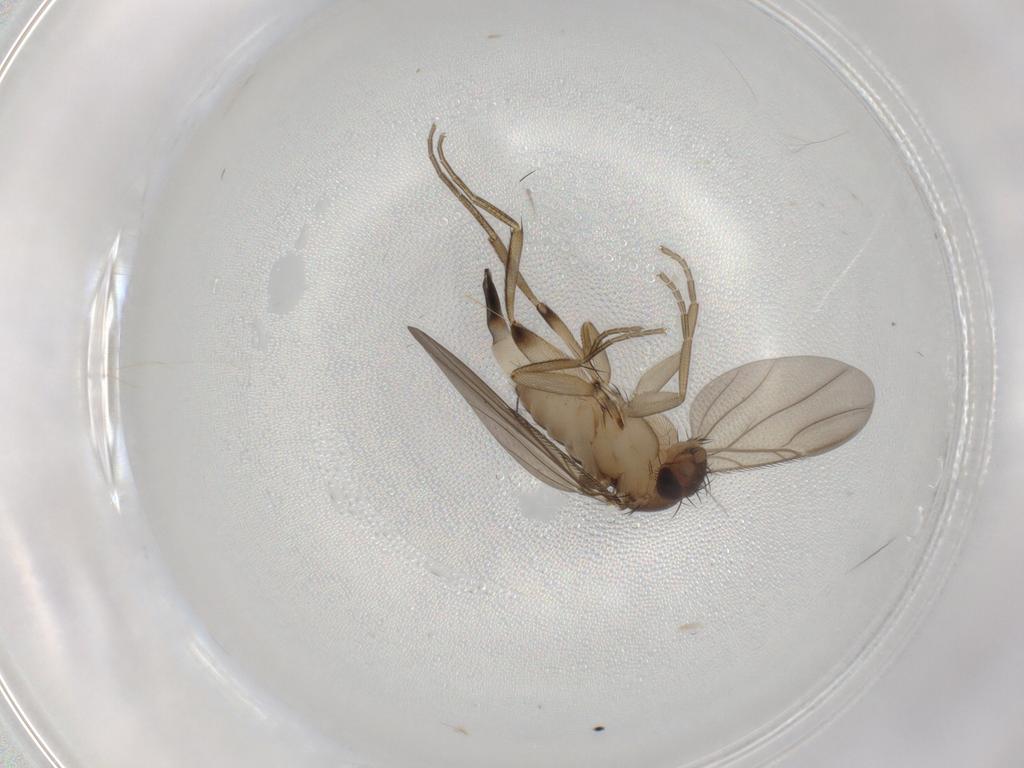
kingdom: Animalia
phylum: Arthropoda
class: Insecta
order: Diptera
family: Phoridae
